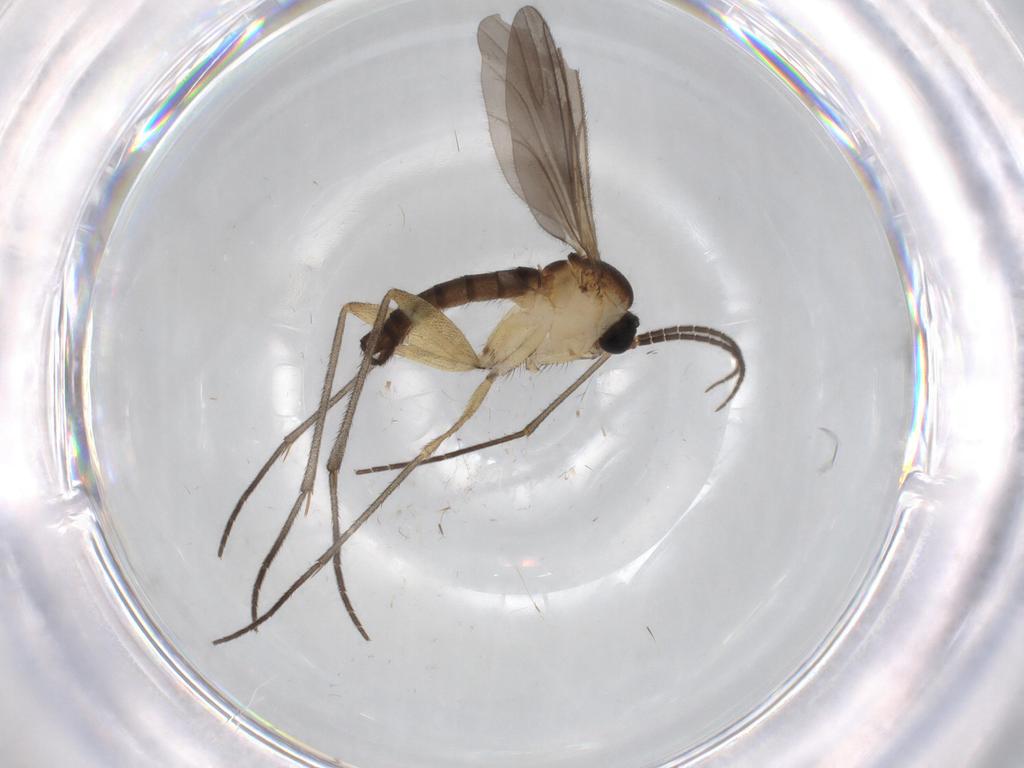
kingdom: Animalia
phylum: Arthropoda
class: Insecta
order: Diptera
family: Sciaridae
